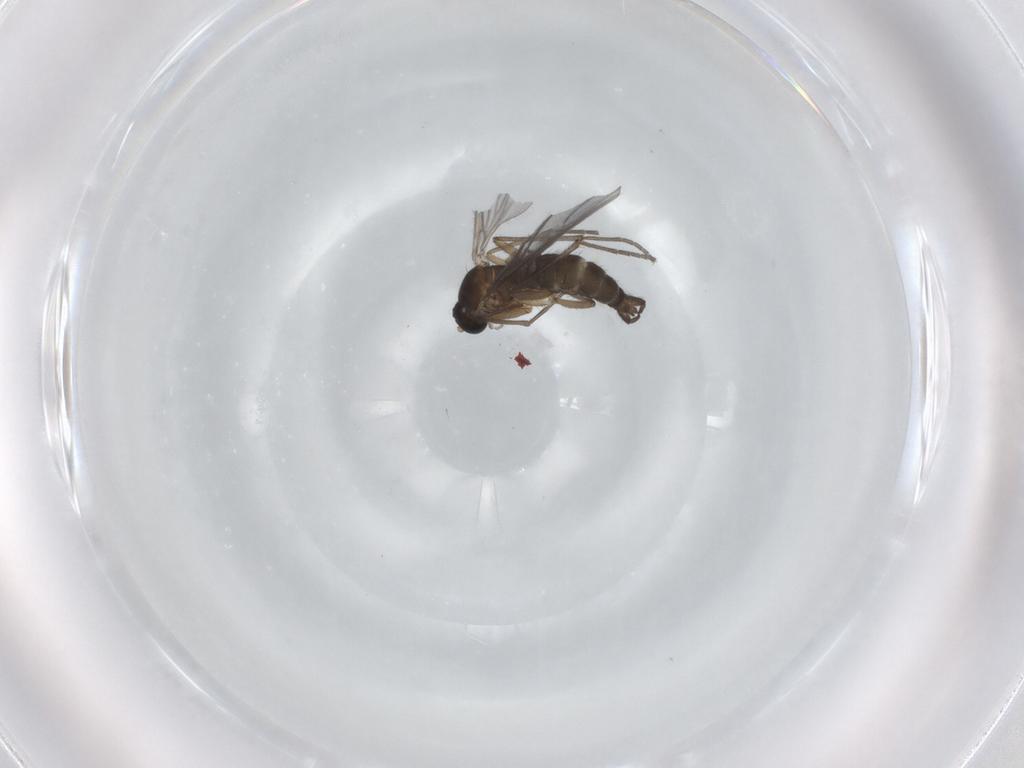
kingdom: Animalia
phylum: Arthropoda
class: Insecta
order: Diptera
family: Sciaridae
